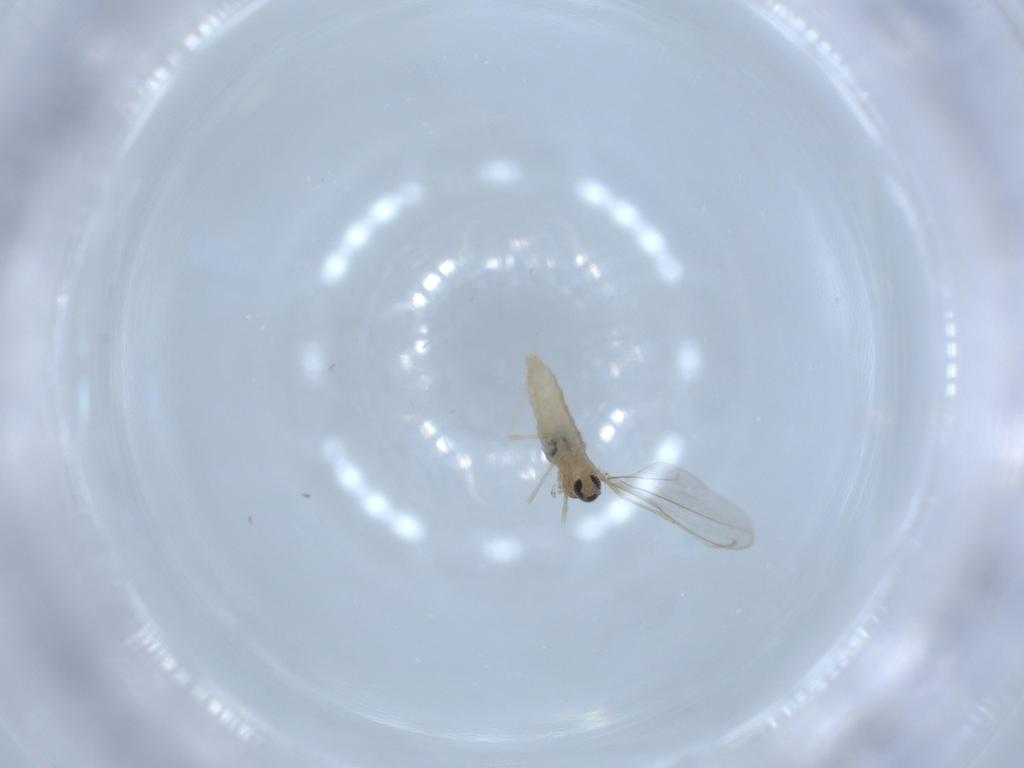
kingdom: Animalia
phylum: Arthropoda
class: Insecta
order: Diptera
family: Cecidomyiidae
